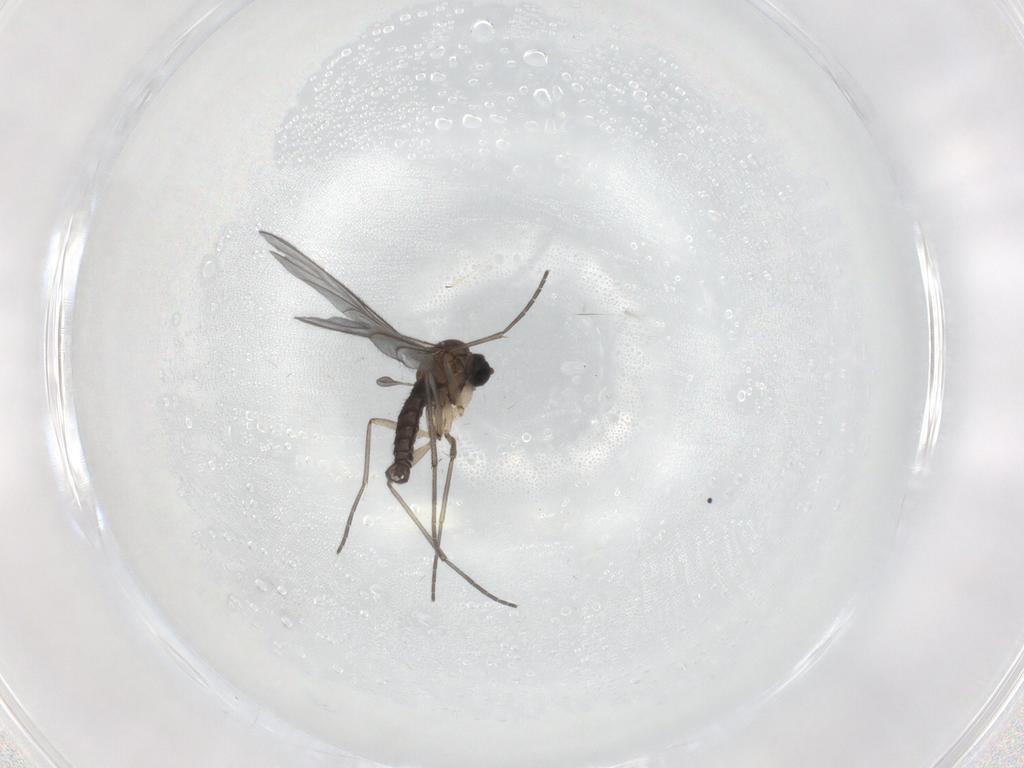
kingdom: Animalia
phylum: Arthropoda
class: Insecta
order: Diptera
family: Sciaridae
